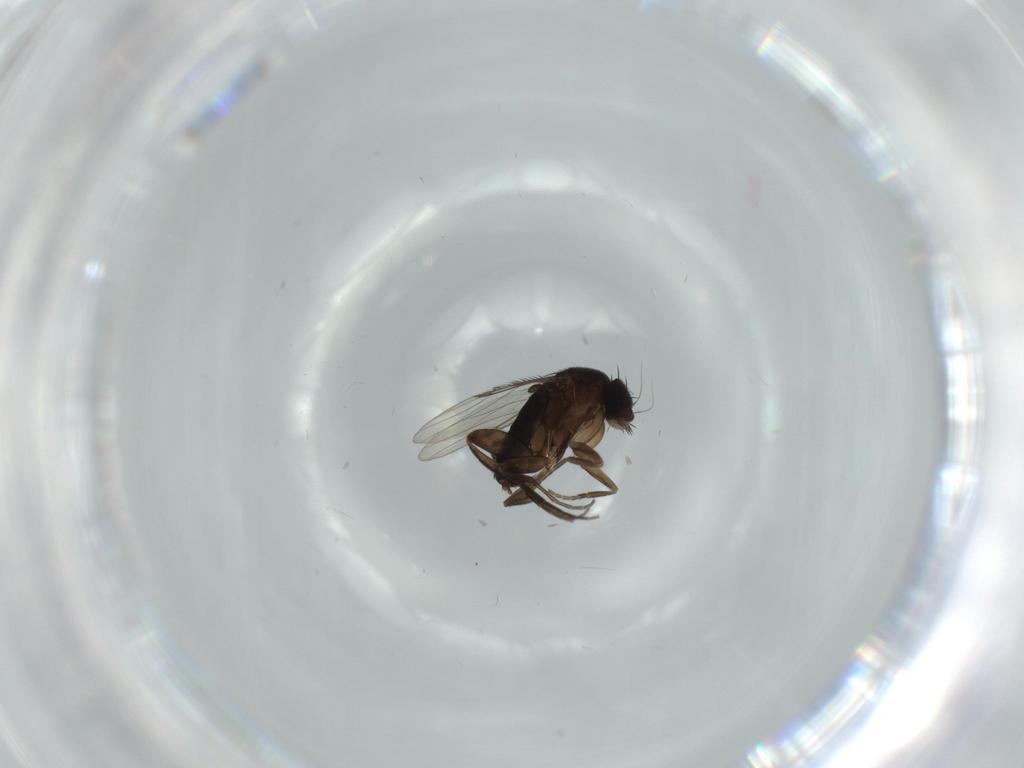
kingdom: Animalia
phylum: Arthropoda
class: Insecta
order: Diptera
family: Phoridae
